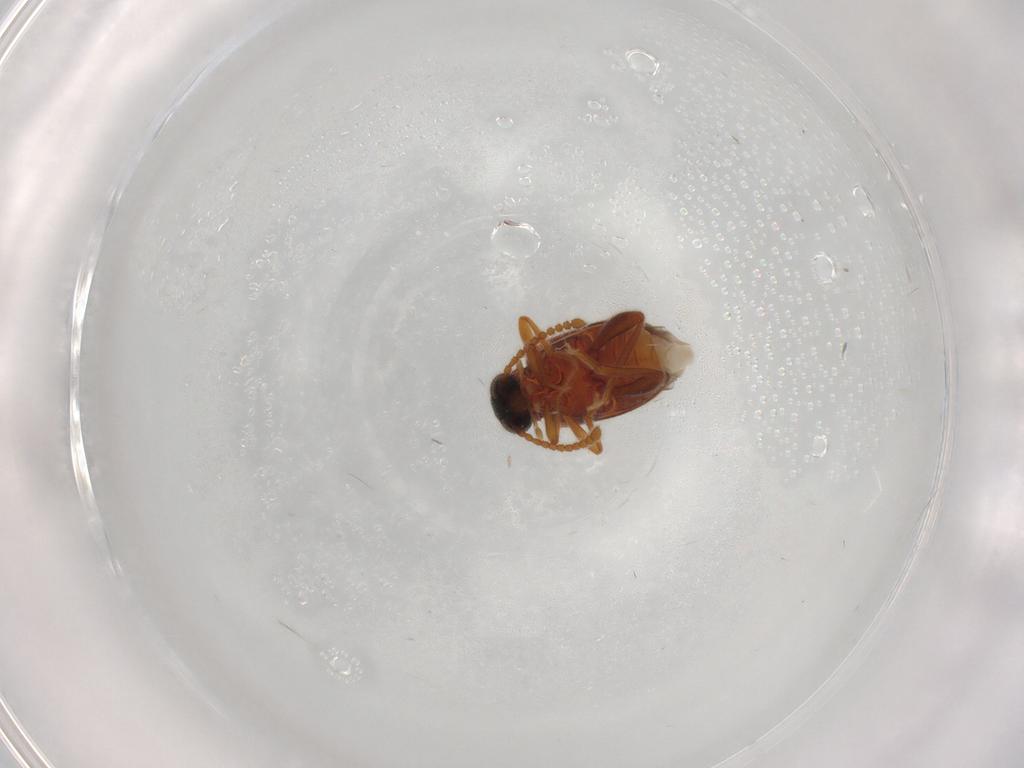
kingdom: Animalia
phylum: Arthropoda
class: Insecta
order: Coleoptera
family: Aderidae
